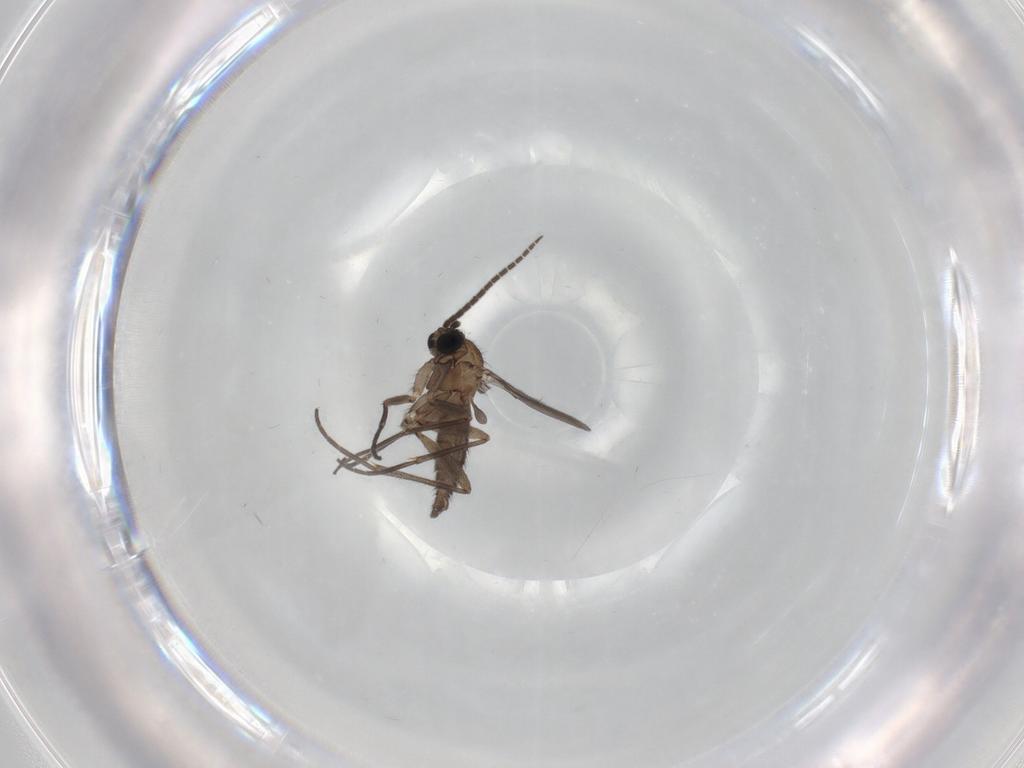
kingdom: Animalia
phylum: Arthropoda
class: Insecta
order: Diptera
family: Sciaridae
